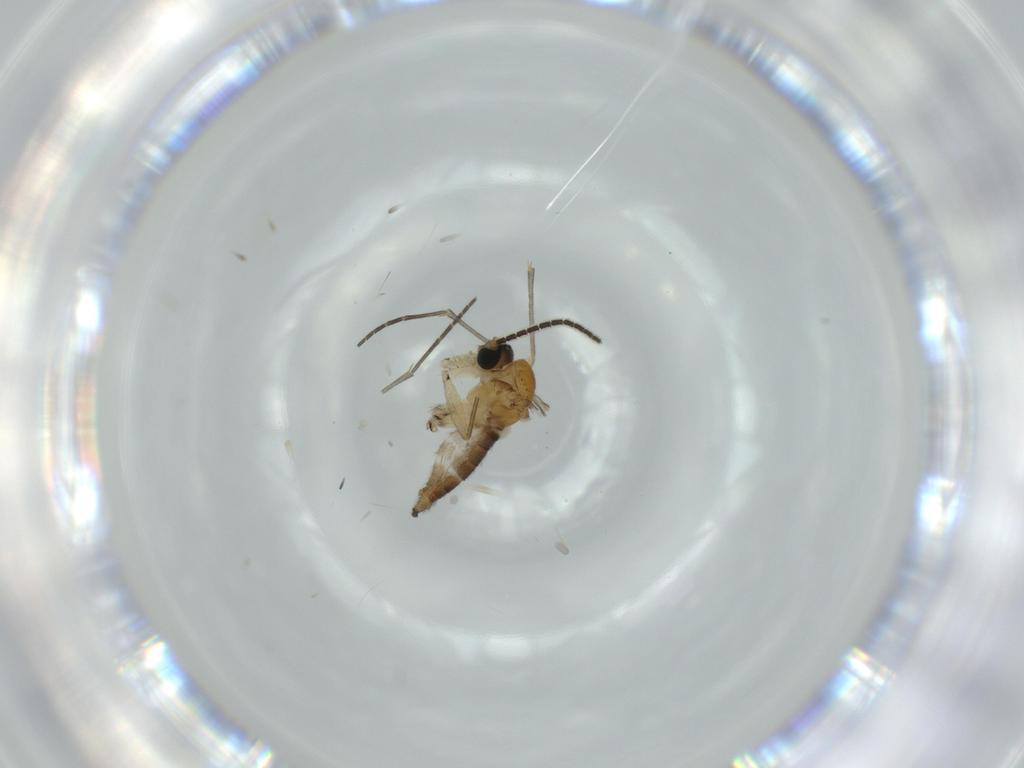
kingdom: Animalia
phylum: Arthropoda
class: Insecta
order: Diptera
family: Sciaridae
